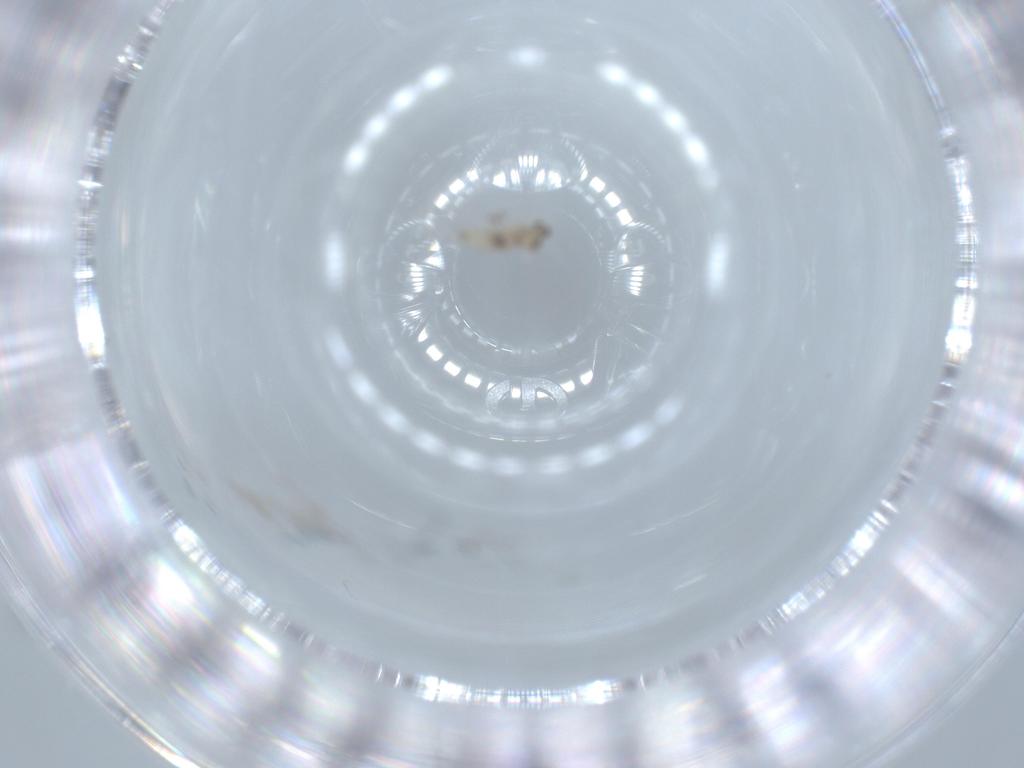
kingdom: Animalia
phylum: Arthropoda
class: Insecta
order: Diptera
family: Cecidomyiidae
